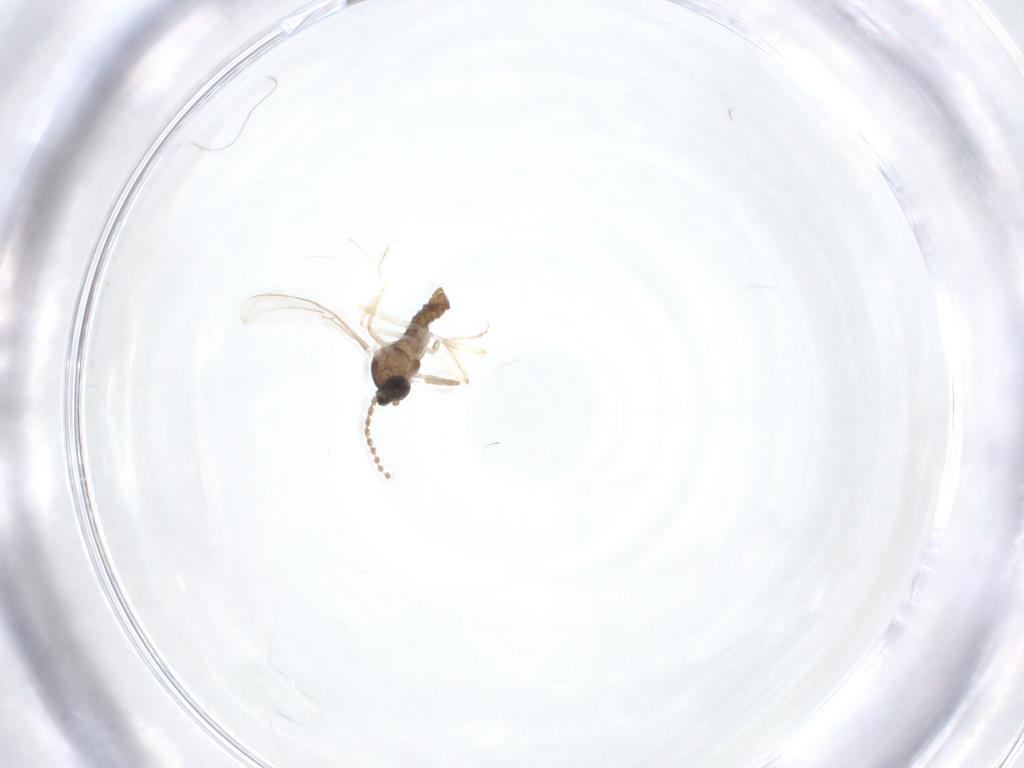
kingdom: Animalia
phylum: Arthropoda
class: Insecta
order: Diptera
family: Cecidomyiidae
